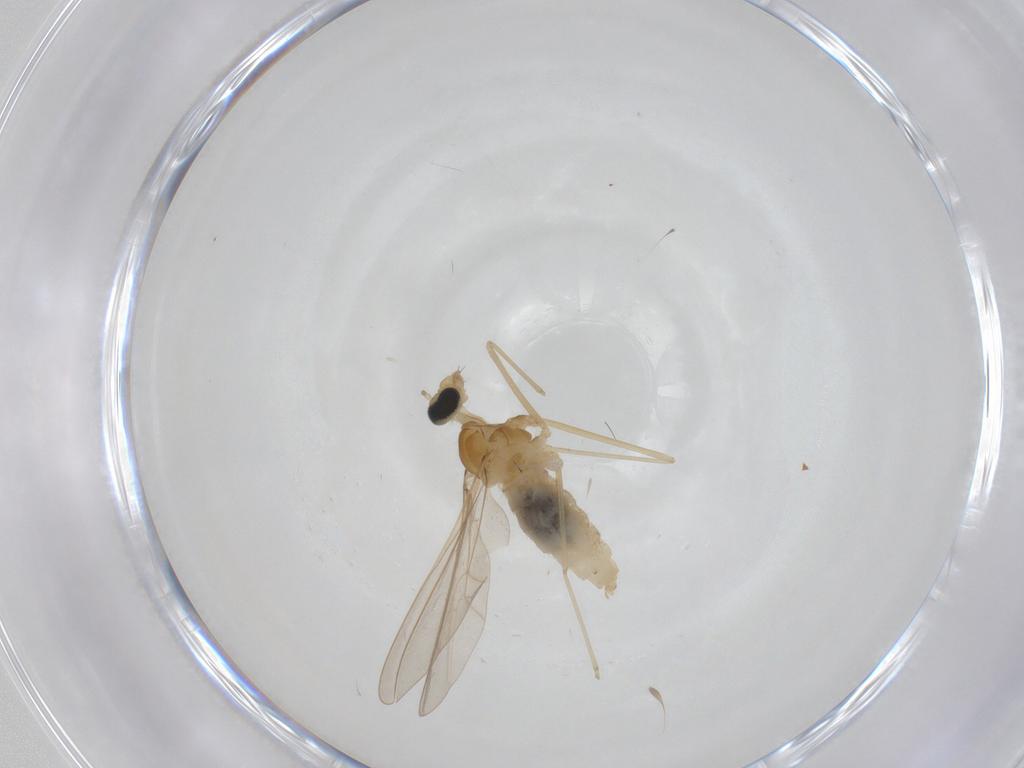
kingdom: Animalia
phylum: Arthropoda
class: Insecta
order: Diptera
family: Cecidomyiidae
